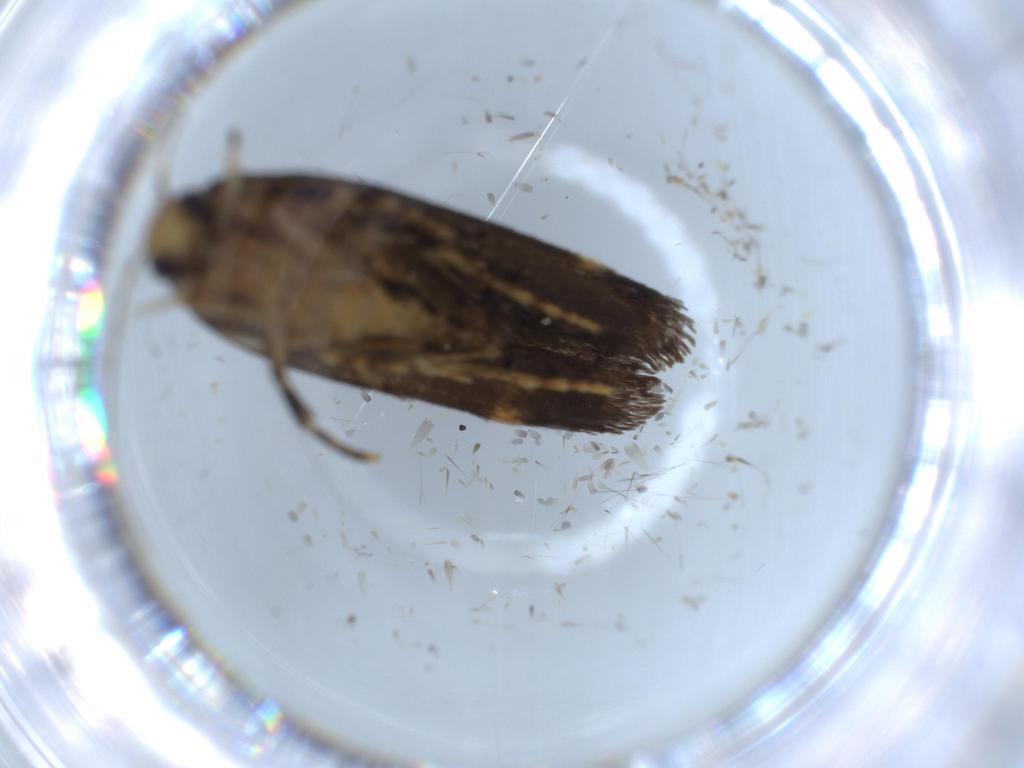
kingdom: Animalia
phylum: Arthropoda
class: Insecta
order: Lepidoptera
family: Gelechiidae
